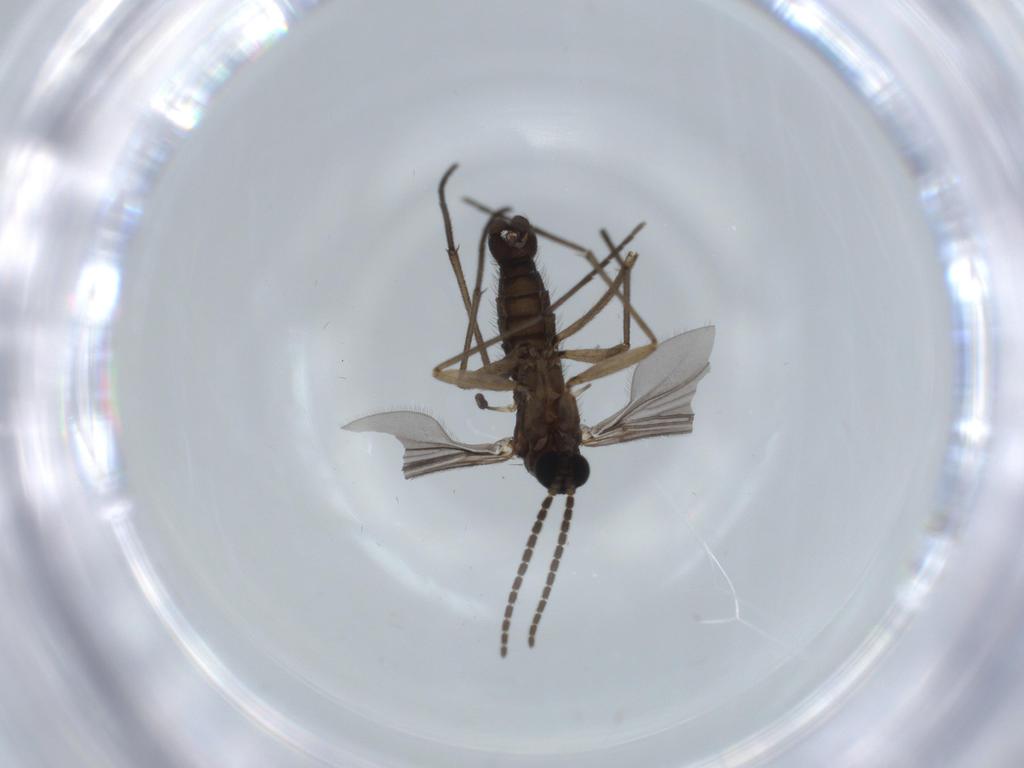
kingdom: Animalia
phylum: Arthropoda
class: Insecta
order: Diptera
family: Sciaridae
